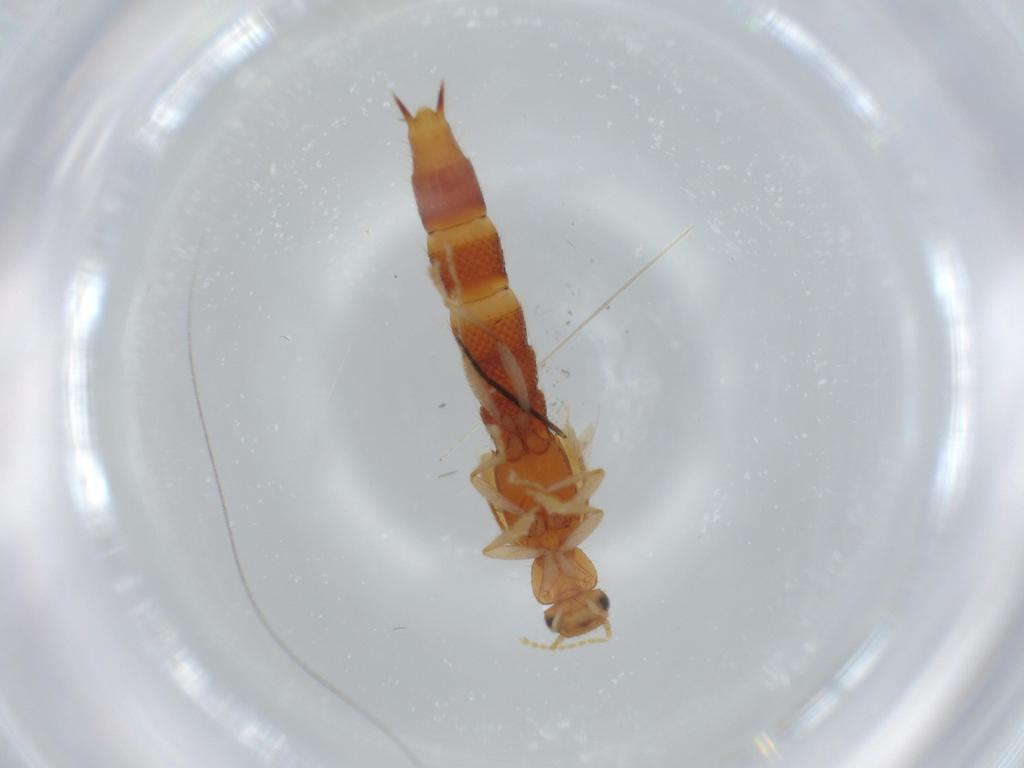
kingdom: Animalia
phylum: Arthropoda
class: Insecta
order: Coleoptera
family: Staphylinidae
